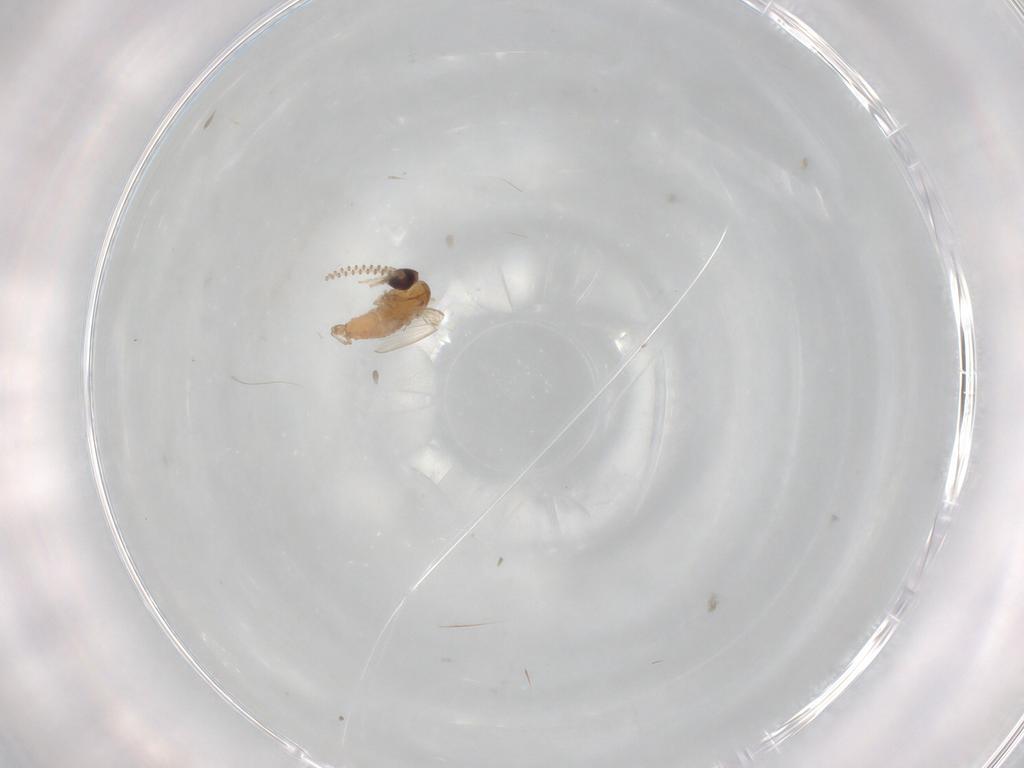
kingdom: Animalia
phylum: Arthropoda
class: Insecta
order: Diptera
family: Psychodidae
